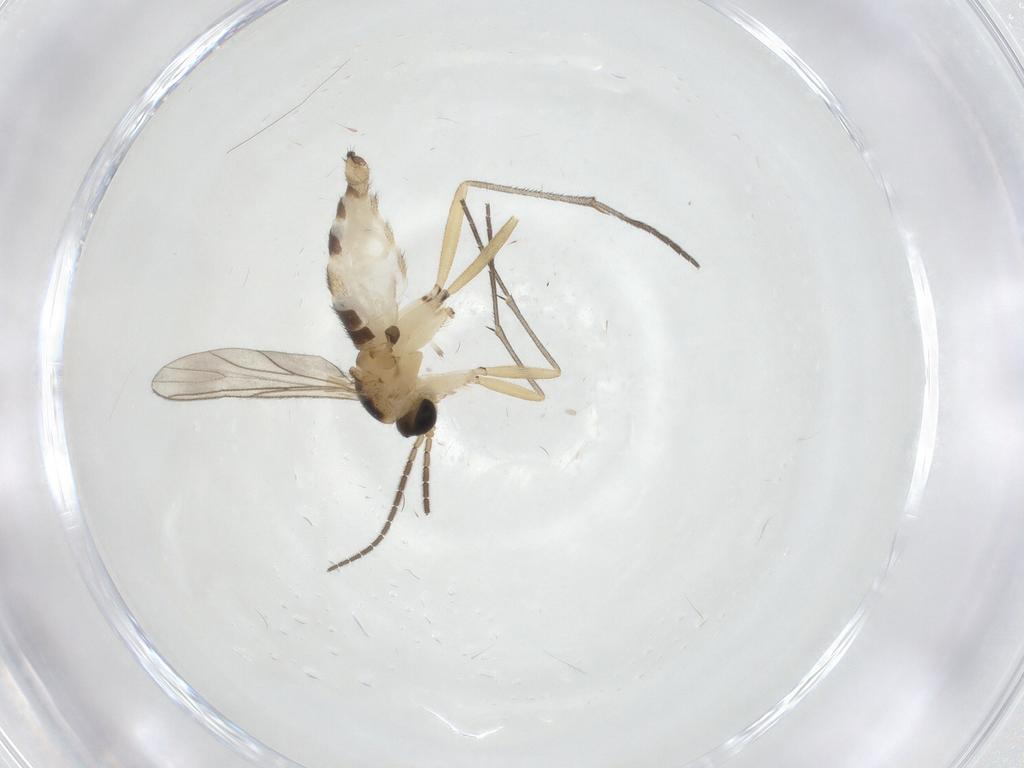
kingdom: Animalia
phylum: Arthropoda
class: Insecta
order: Diptera
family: Sciaridae
